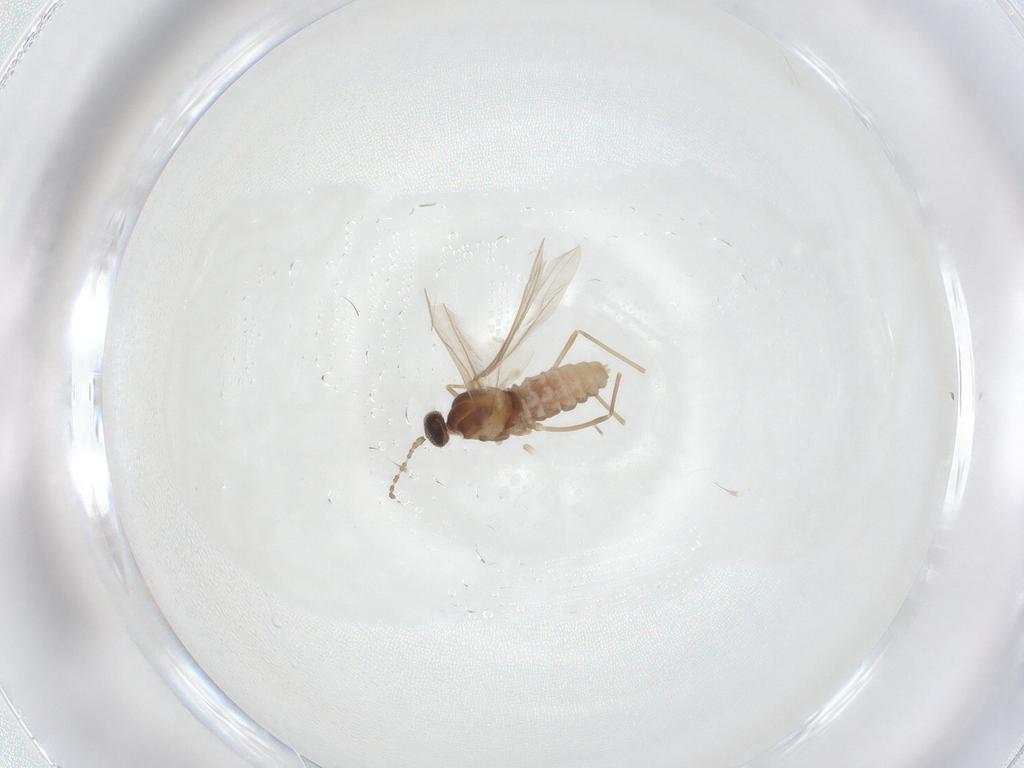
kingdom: Animalia
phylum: Arthropoda
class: Insecta
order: Diptera
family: Cecidomyiidae
